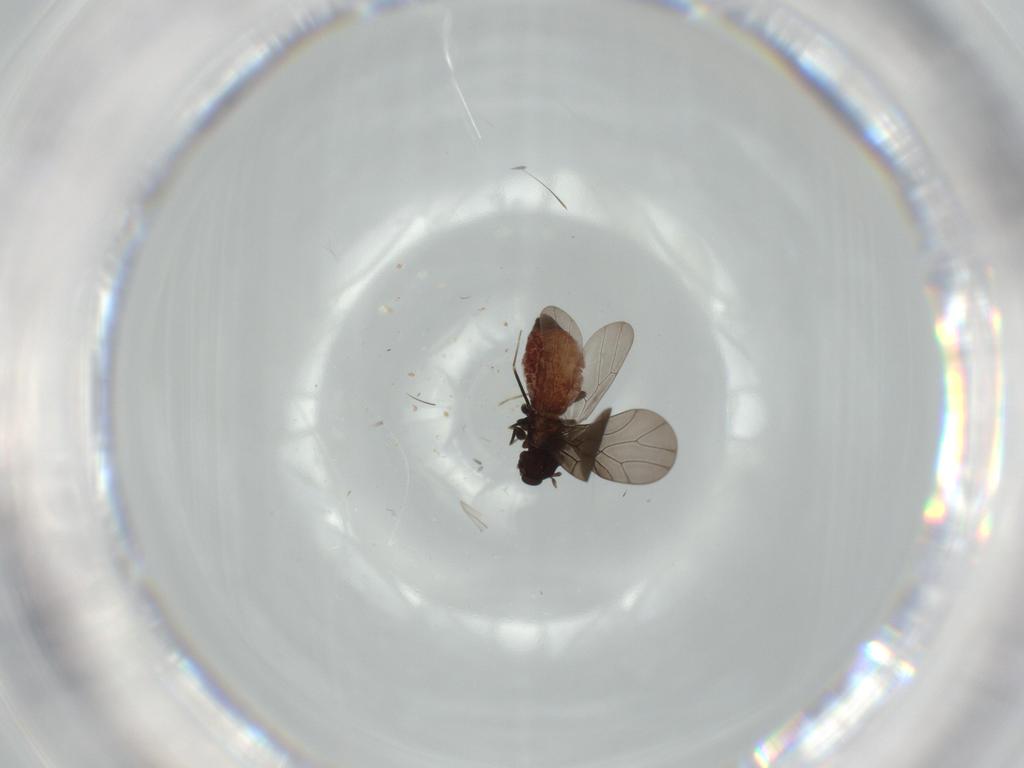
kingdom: Animalia
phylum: Arthropoda
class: Insecta
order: Psocodea
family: Lepidopsocidae
